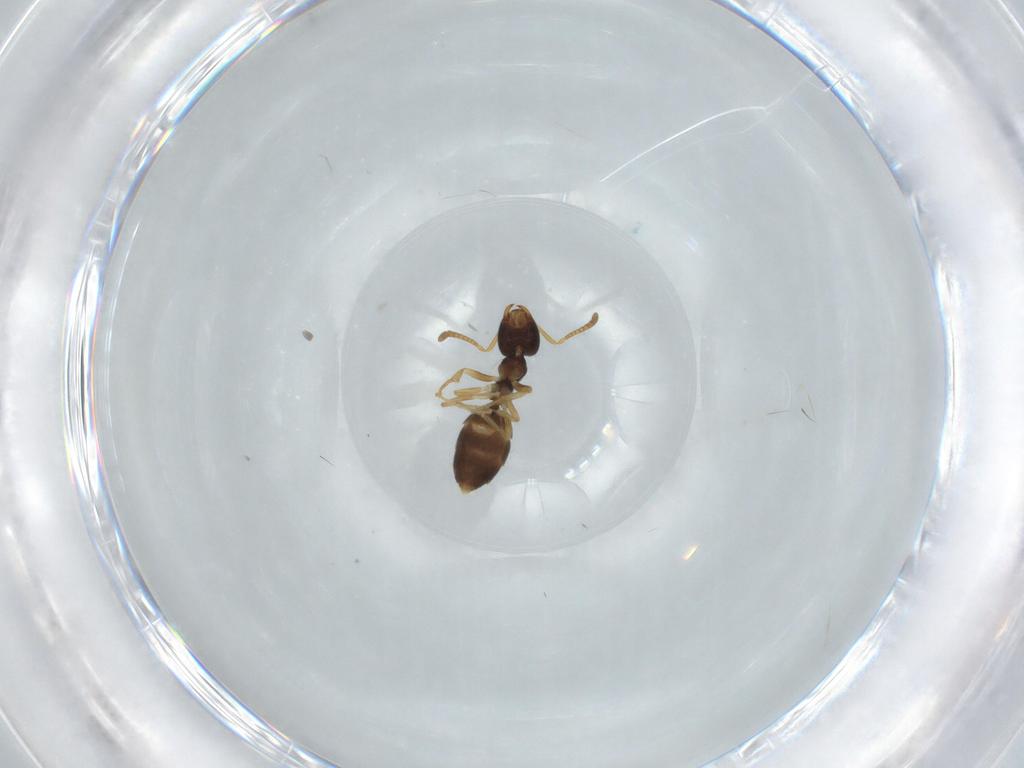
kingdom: Animalia
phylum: Arthropoda
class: Insecta
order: Hymenoptera
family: Formicidae
